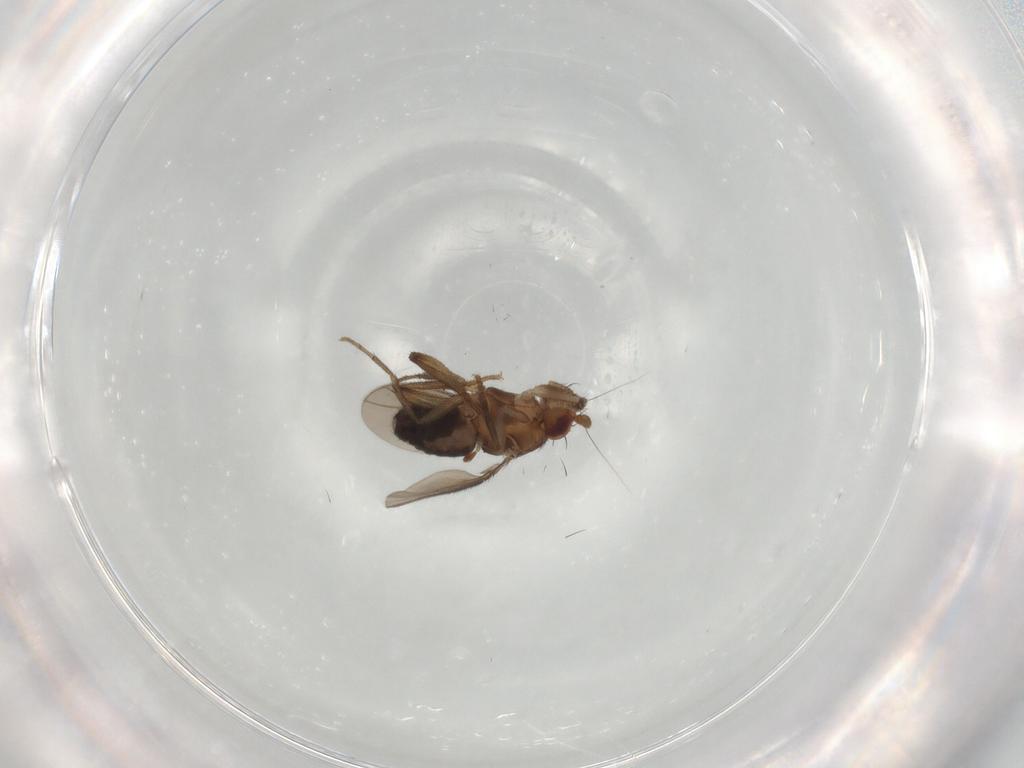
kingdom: Animalia
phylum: Arthropoda
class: Insecta
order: Diptera
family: Sphaeroceridae
